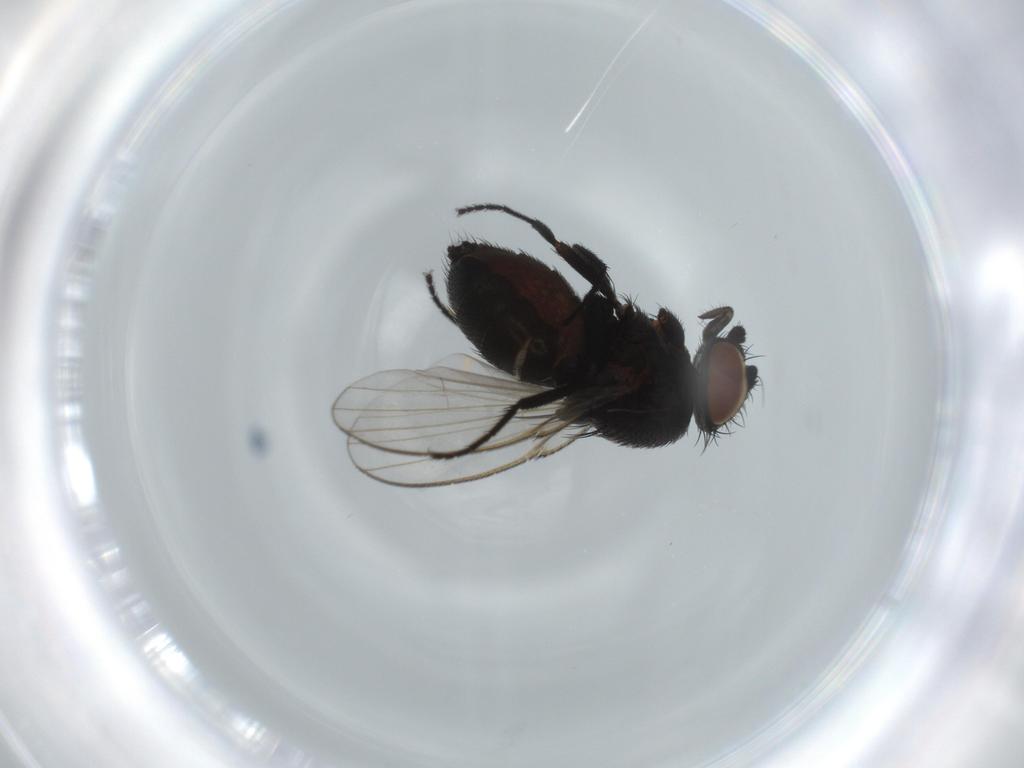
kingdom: Animalia
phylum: Arthropoda
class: Insecta
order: Diptera
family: Milichiidae
